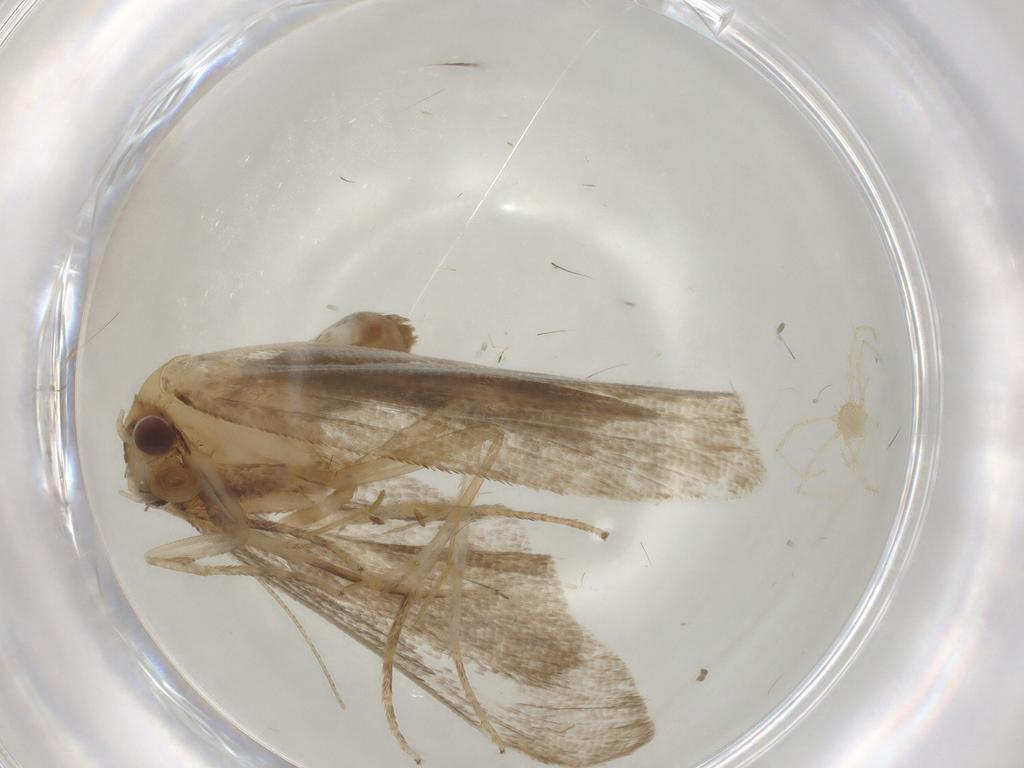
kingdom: Animalia
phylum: Arthropoda
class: Insecta
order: Lepidoptera
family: Erebidae
